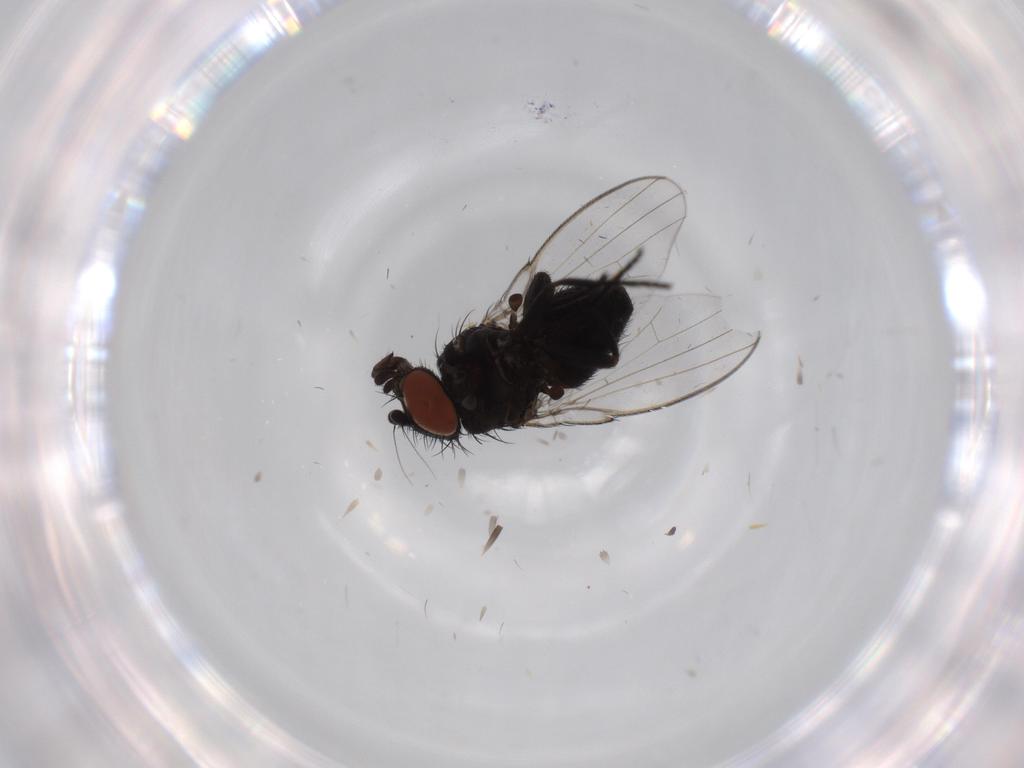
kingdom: Animalia
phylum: Arthropoda
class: Insecta
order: Diptera
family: Milichiidae
